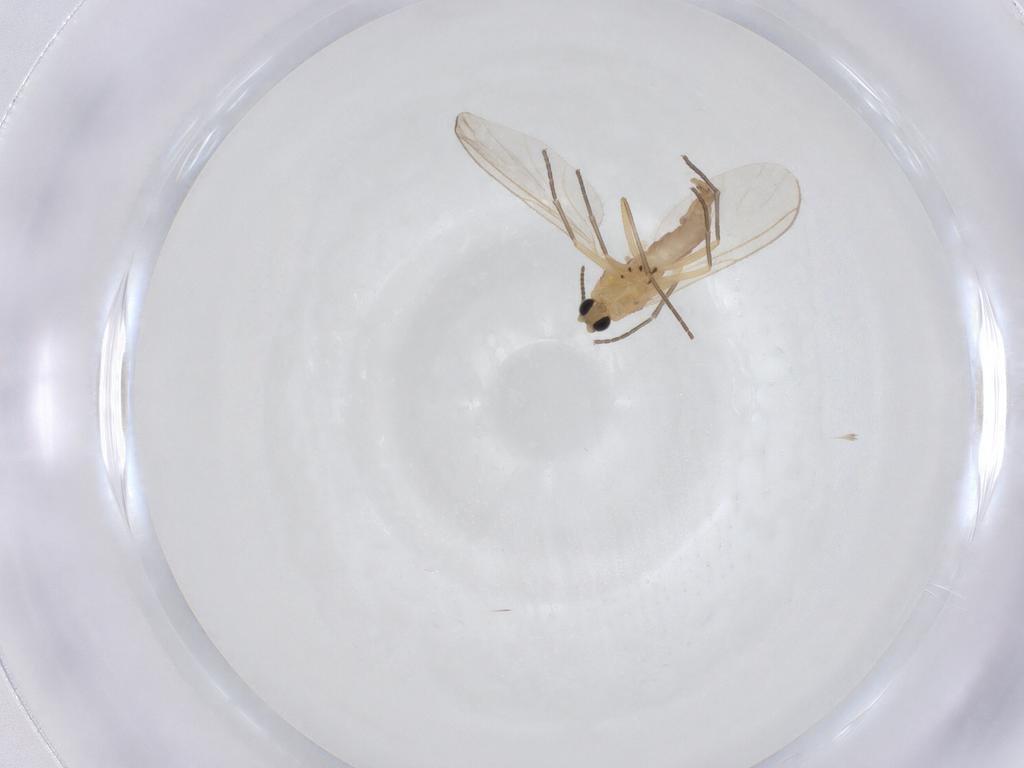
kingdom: Animalia
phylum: Arthropoda
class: Insecta
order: Diptera
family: Sciaridae
